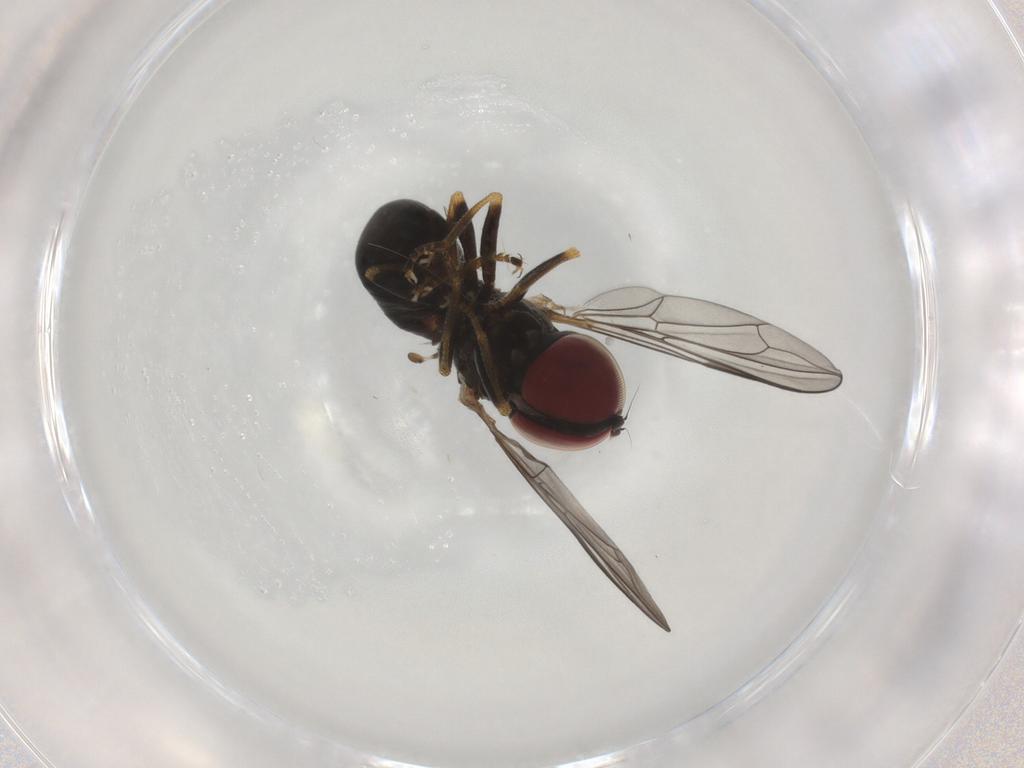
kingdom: Animalia
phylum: Arthropoda
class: Insecta
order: Diptera
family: Pipunculidae
